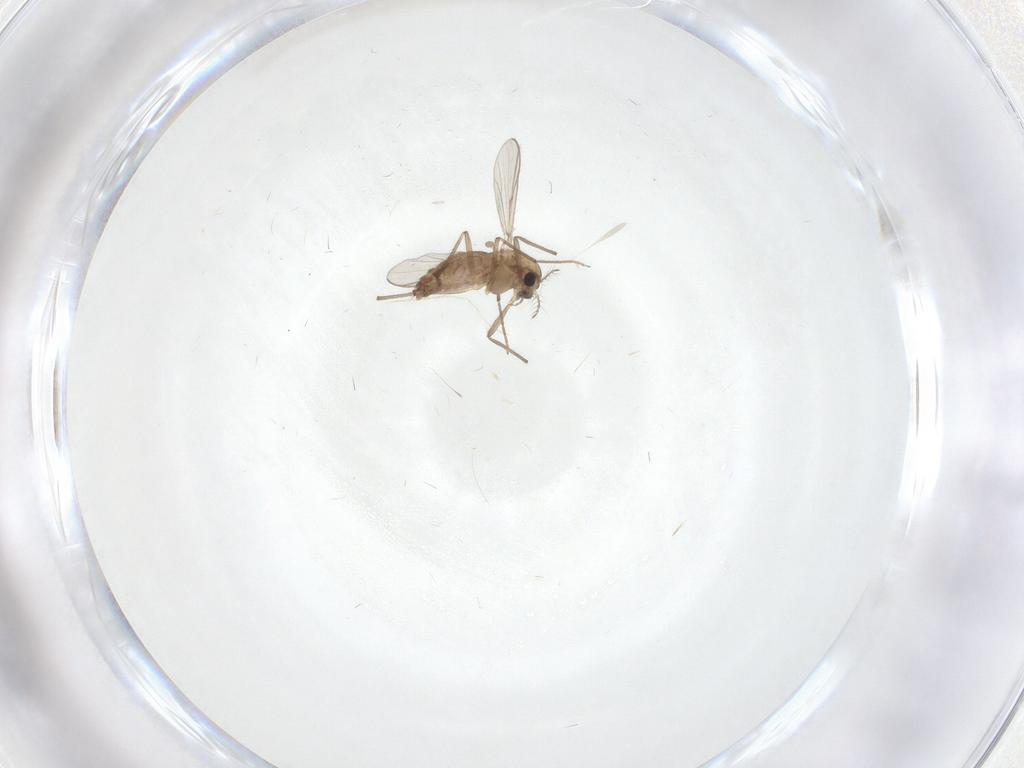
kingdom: Animalia
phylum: Arthropoda
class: Insecta
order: Diptera
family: Chironomidae
